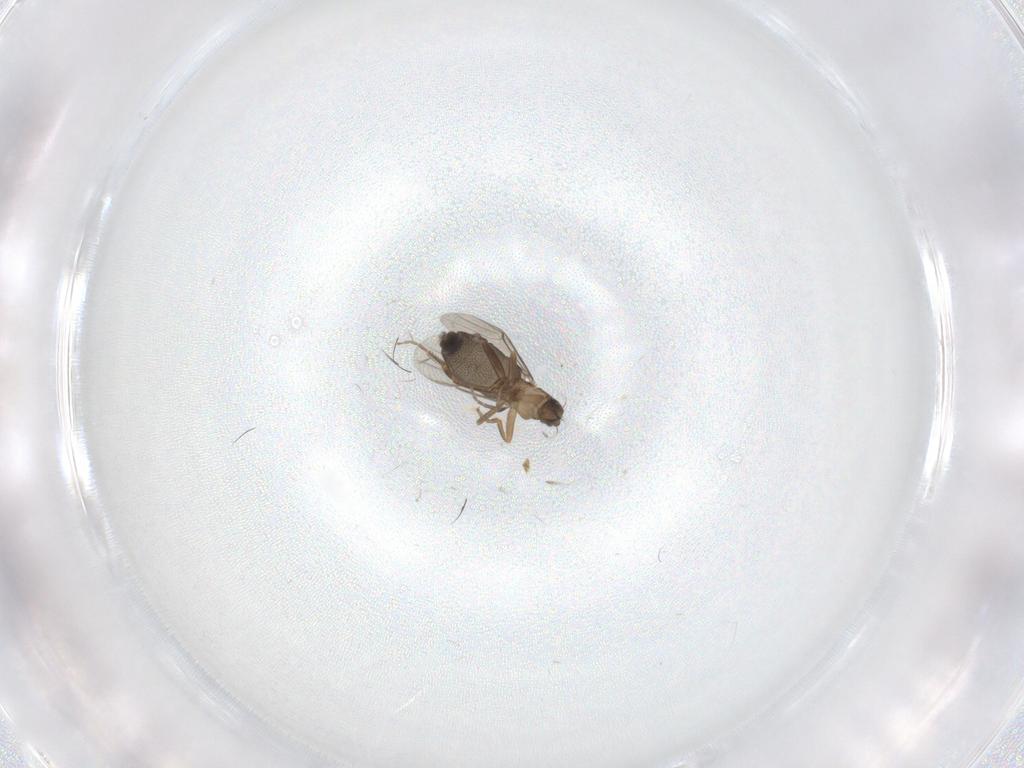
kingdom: Animalia
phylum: Arthropoda
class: Insecta
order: Diptera
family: Phoridae
